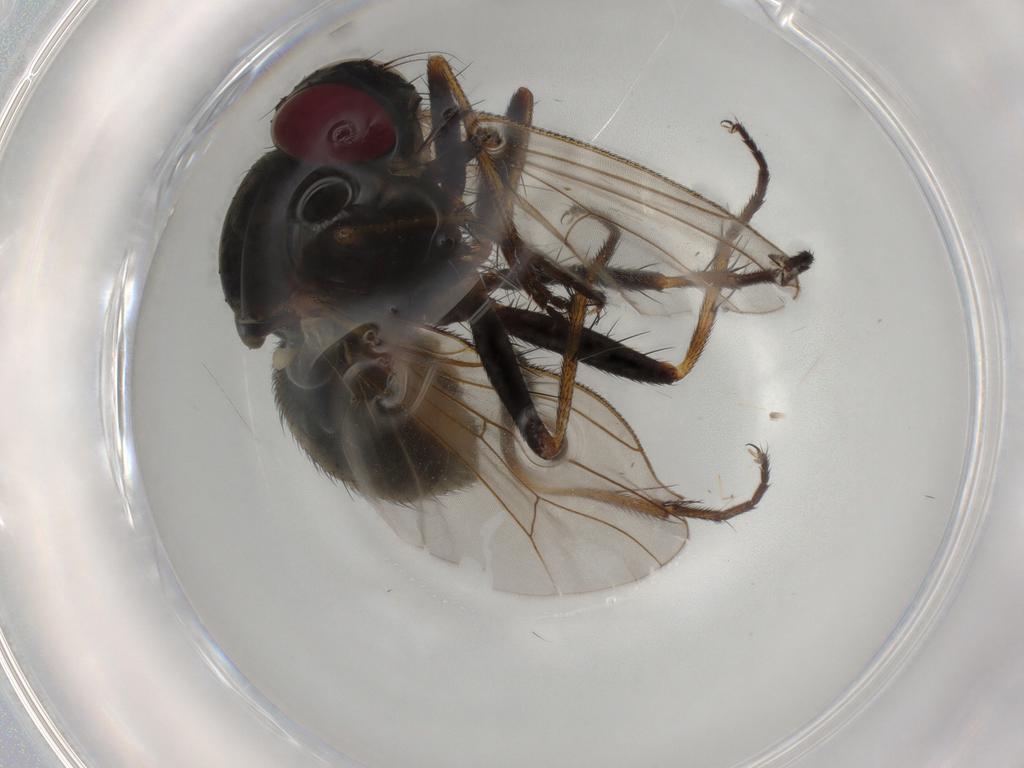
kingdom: Animalia
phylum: Arthropoda
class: Insecta
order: Diptera
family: Muscidae
